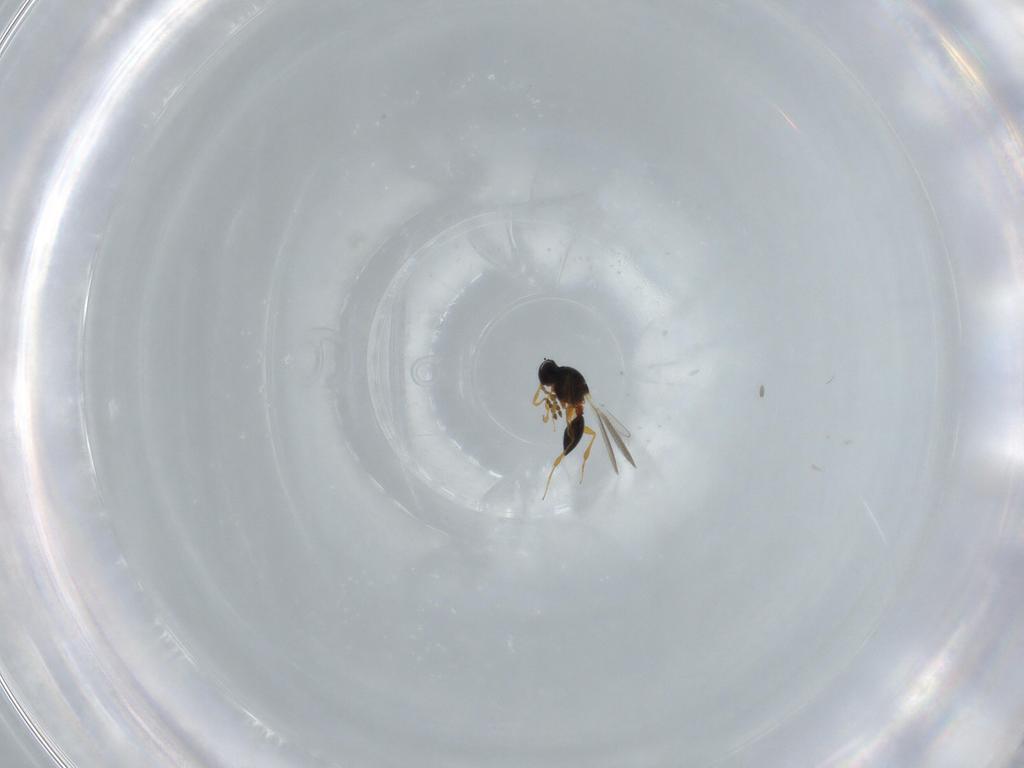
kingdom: Animalia
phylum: Arthropoda
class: Insecta
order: Hymenoptera
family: Platygastridae
